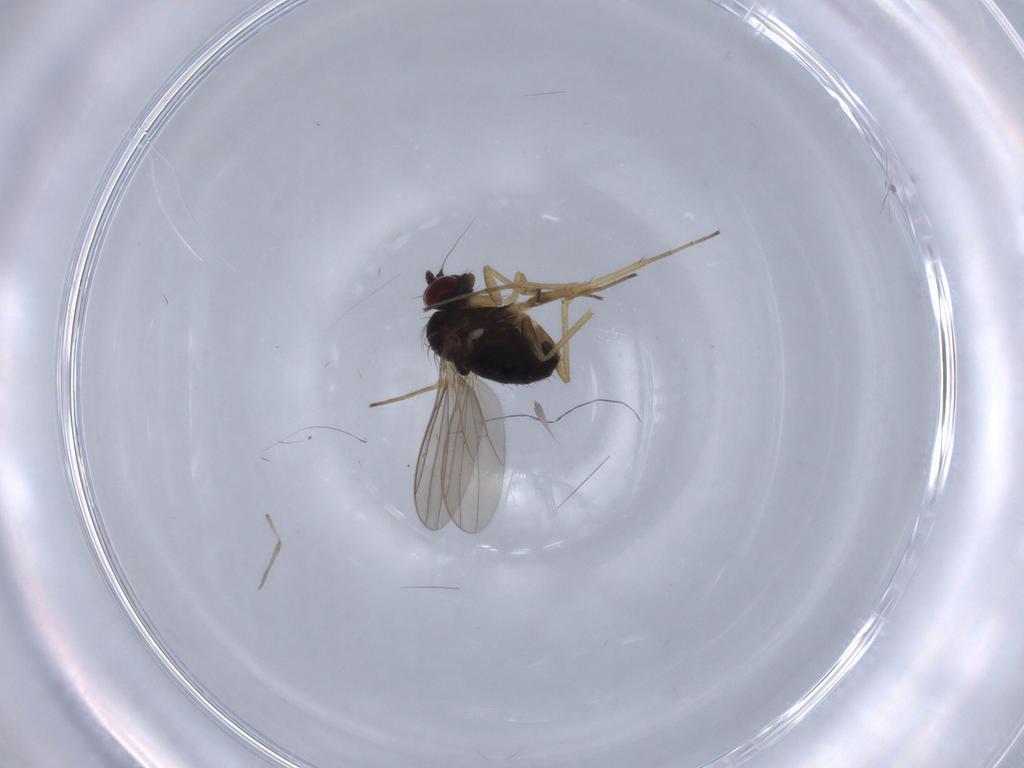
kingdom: Animalia
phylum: Arthropoda
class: Insecta
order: Diptera
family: Dolichopodidae
